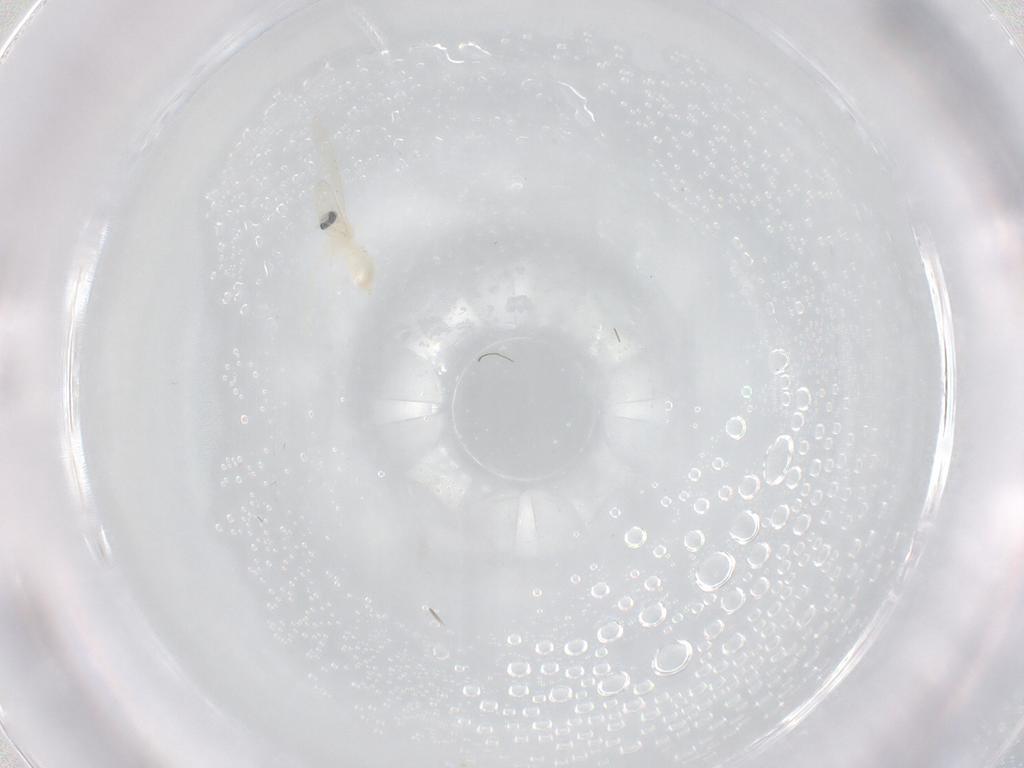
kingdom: Animalia
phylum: Arthropoda
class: Insecta
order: Diptera
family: Cecidomyiidae
